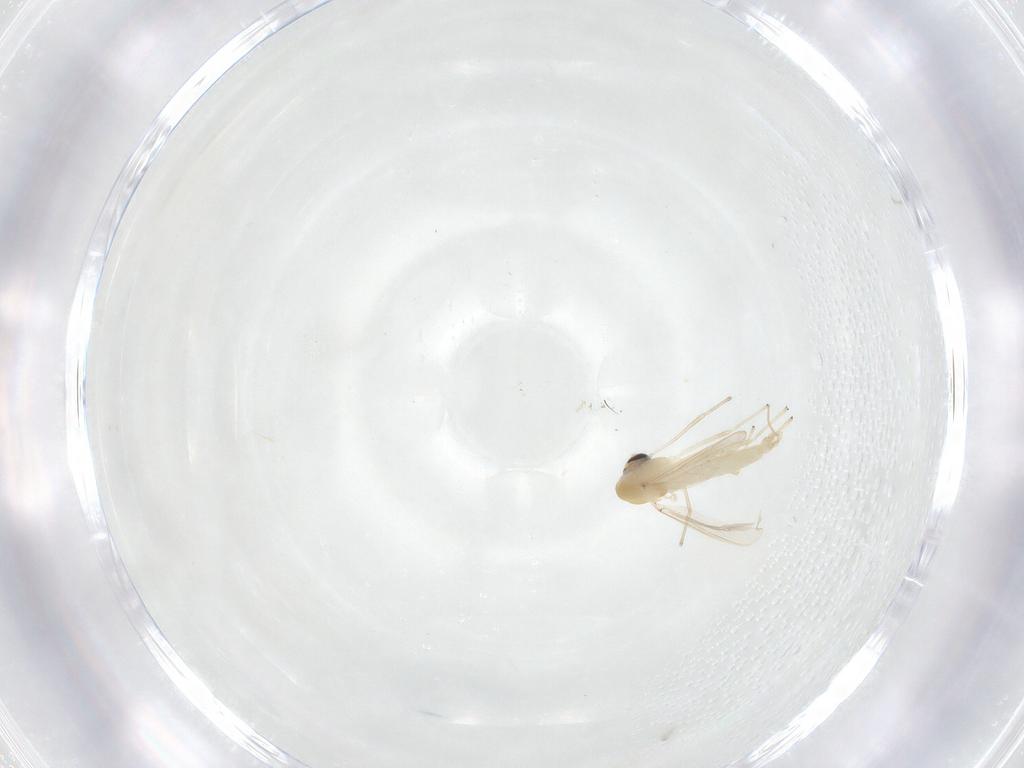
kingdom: Animalia
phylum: Arthropoda
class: Insecta
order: Diptera
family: Chironomidae
